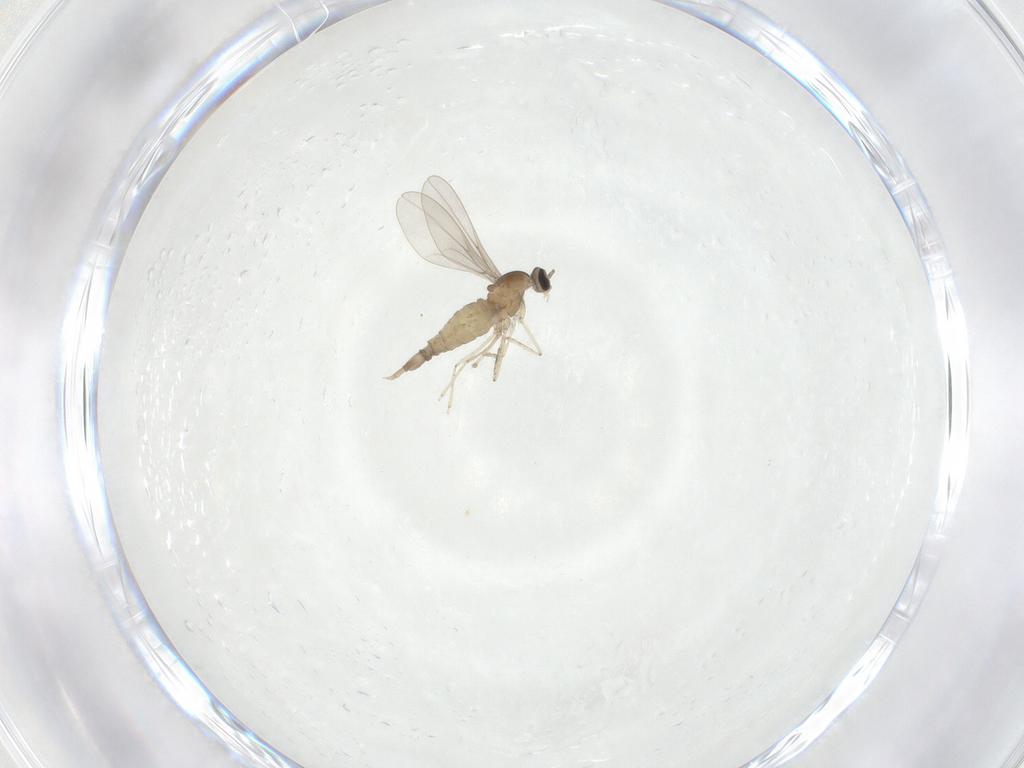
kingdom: Animalia
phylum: Arthropoda
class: Insecta
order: Diptera
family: Cecidomyiidae
